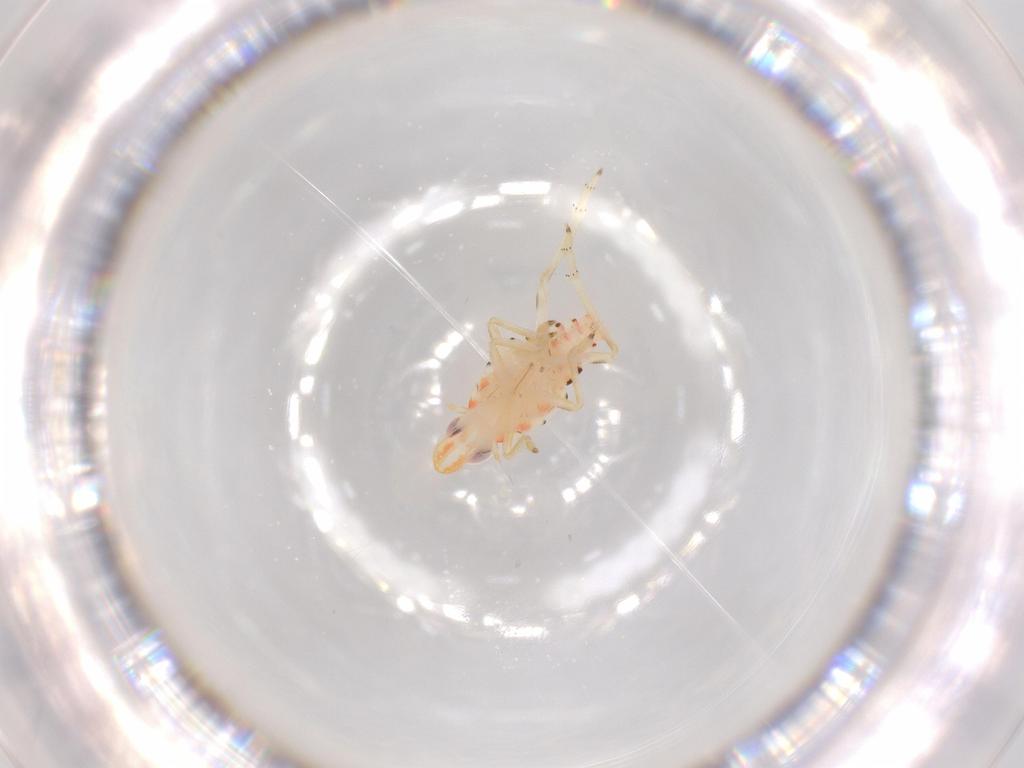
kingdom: Animalia
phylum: Arthropoda
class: Insecta
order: Hemiptera
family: Tropiduchidae
